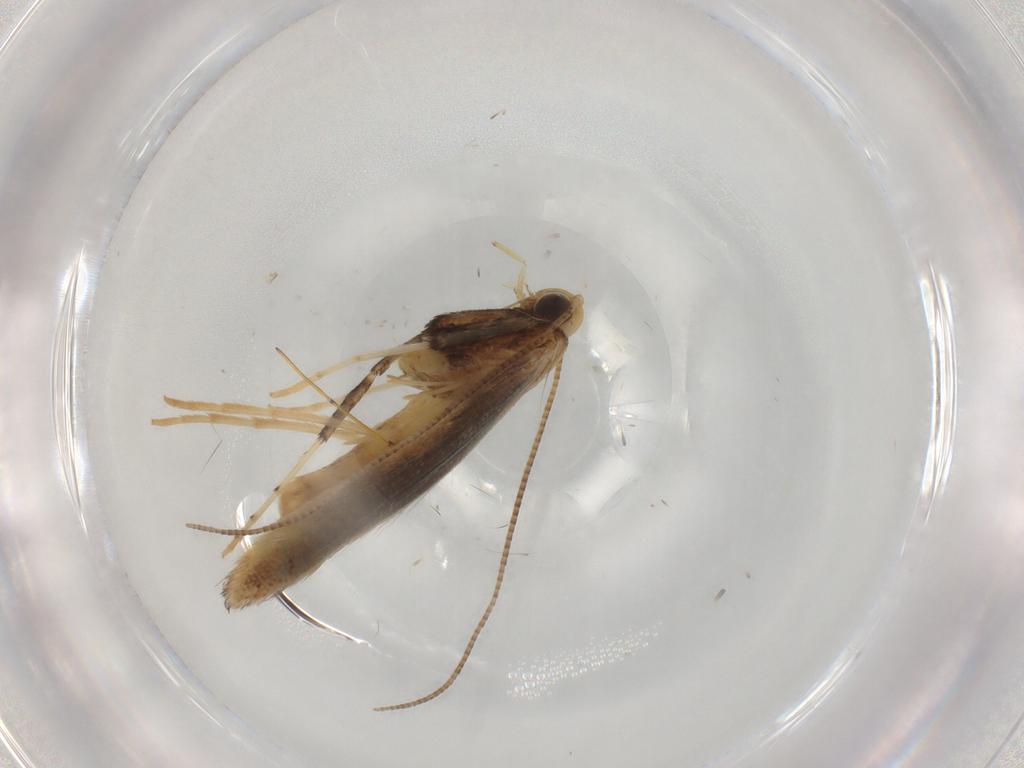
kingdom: Animalia
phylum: Arthropoda
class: Insecta
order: Lepidoptera
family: Gracillariidae
